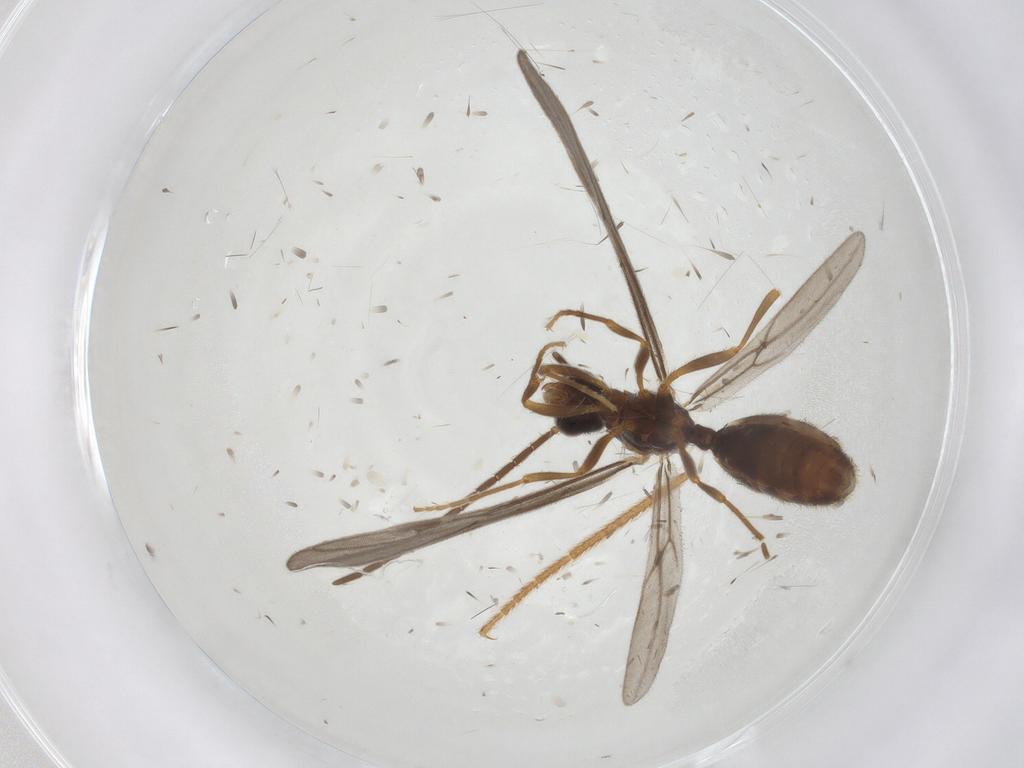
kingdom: Animalia
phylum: Arthropoda
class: Insecta
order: Hymenoptera
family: Formicidae
